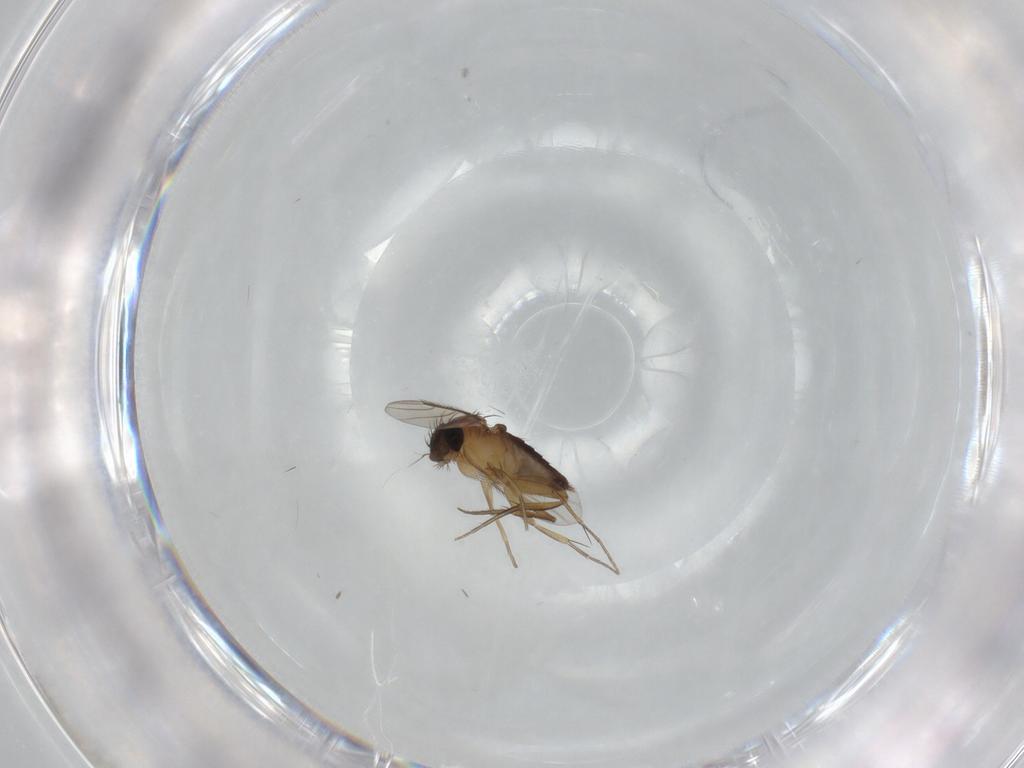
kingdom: Animalia
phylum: Arthropoda
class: Insecta
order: Diptera
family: Phoridae
